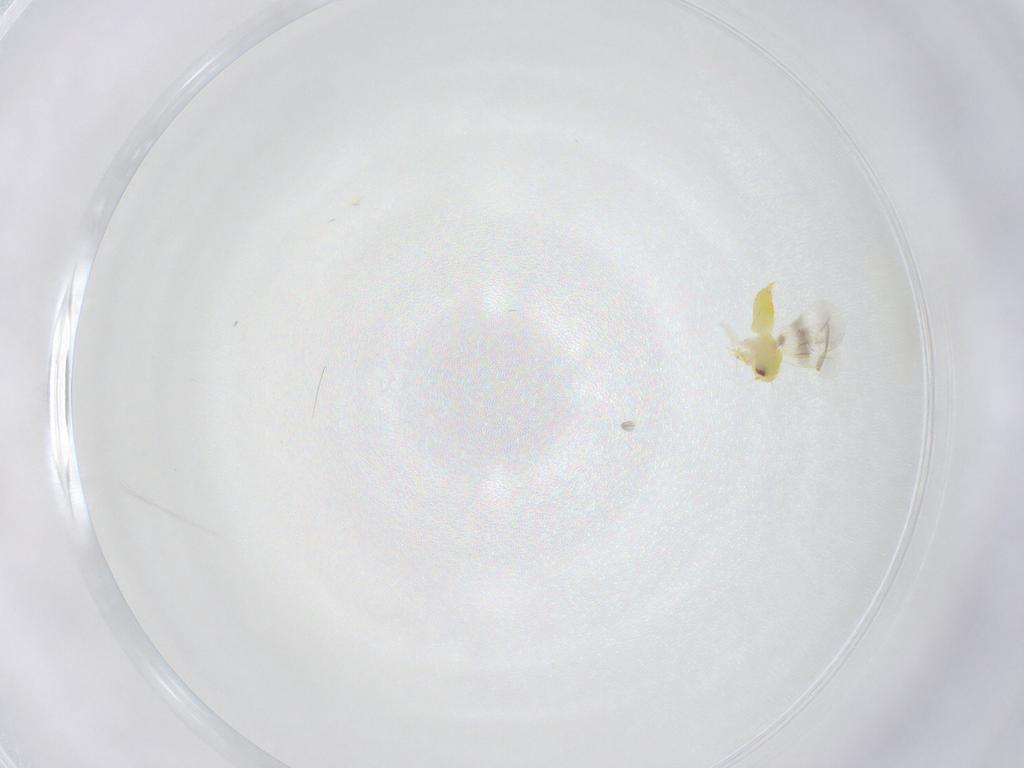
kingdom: Animalia
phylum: Arthropoda
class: Insecta
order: Hemiptera
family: Aleyrodidae
